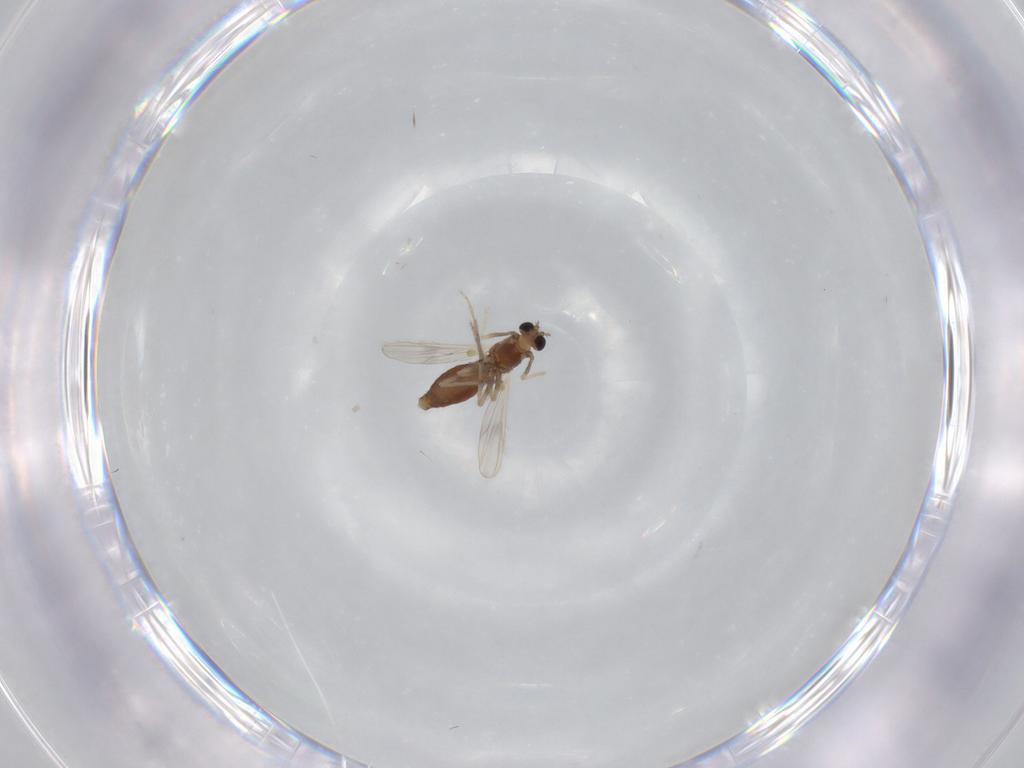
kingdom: Animalia
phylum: Arthropoda
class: Insecta
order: Diptera
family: Chironomidae
